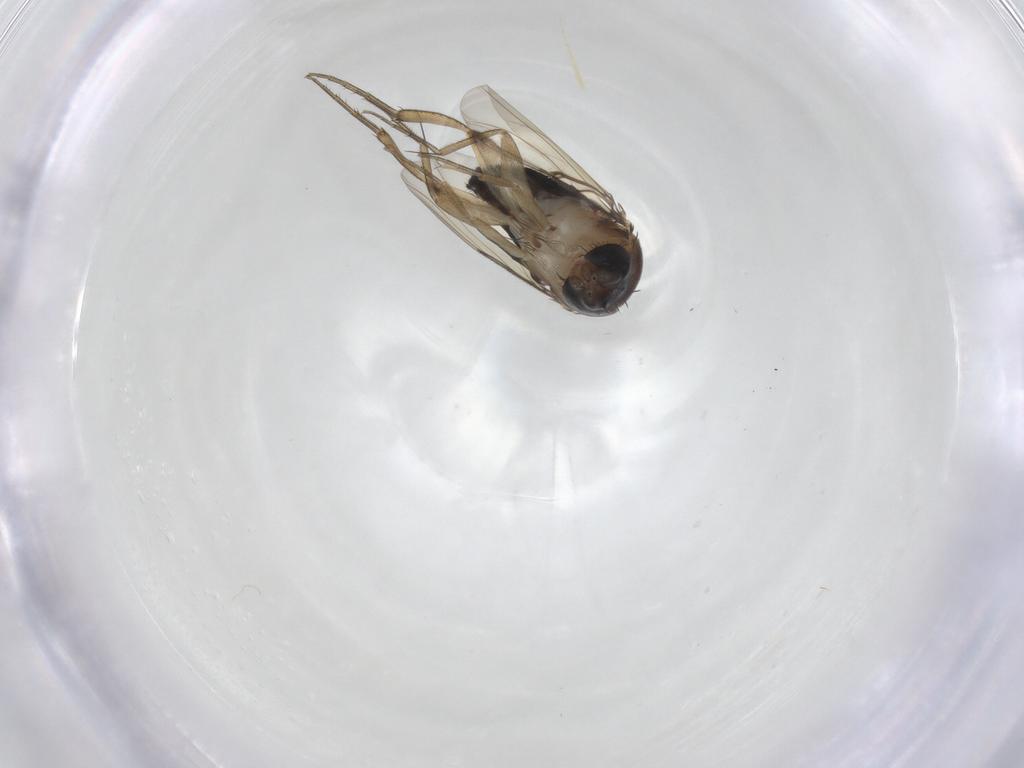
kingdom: Animalia
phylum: Arthropoda
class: Insecta
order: Diptera
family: Phoridae
